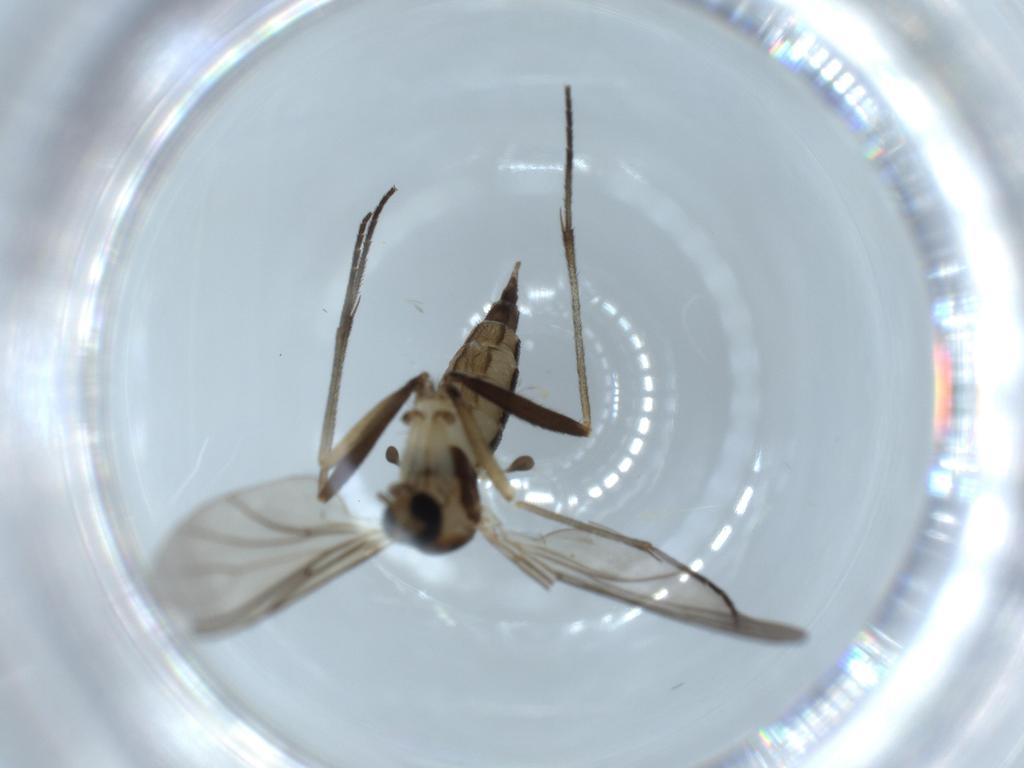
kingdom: Animalia
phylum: Arthropoda
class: Insecta
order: Diptera
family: Sciaridae
